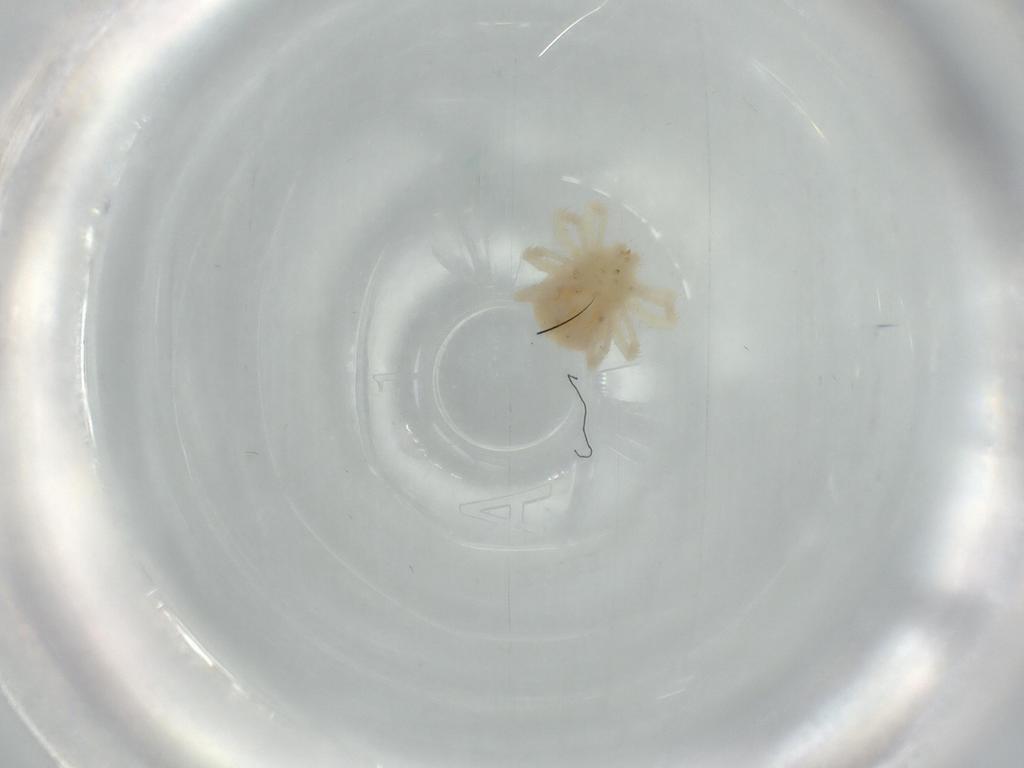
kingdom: Animalia
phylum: Arthropoda
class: Arachnida
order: Trombidiformes
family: Anystidae
